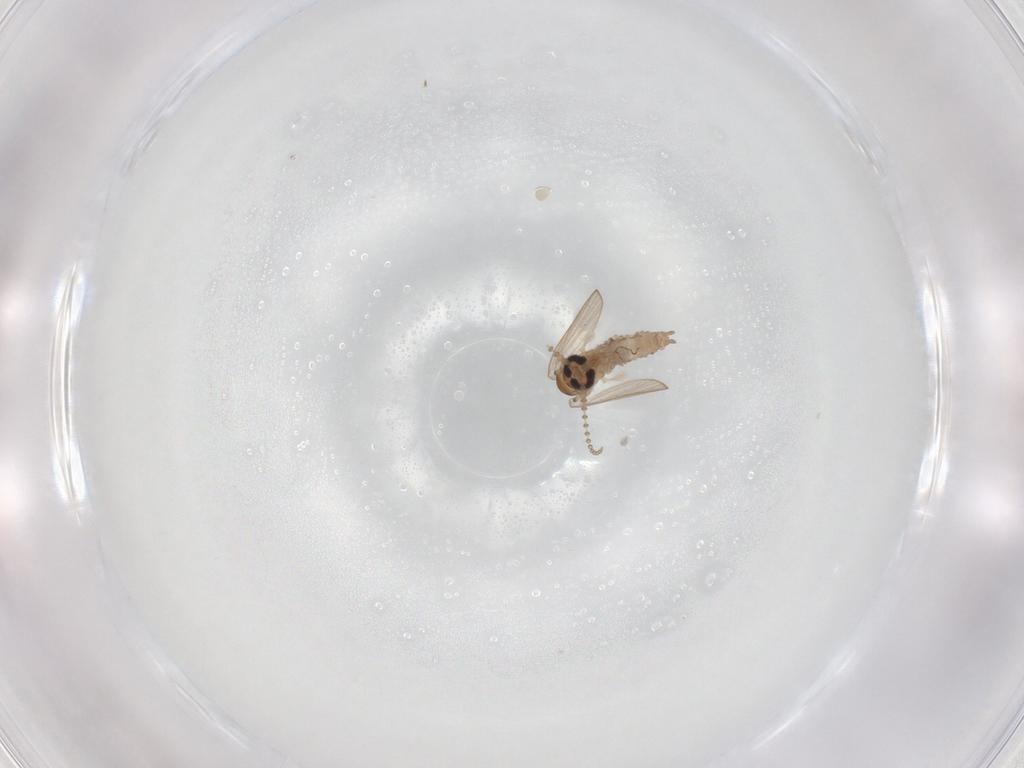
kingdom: Animalia
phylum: Arthropoda
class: Insecta
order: Diptera
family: Psychodidae
